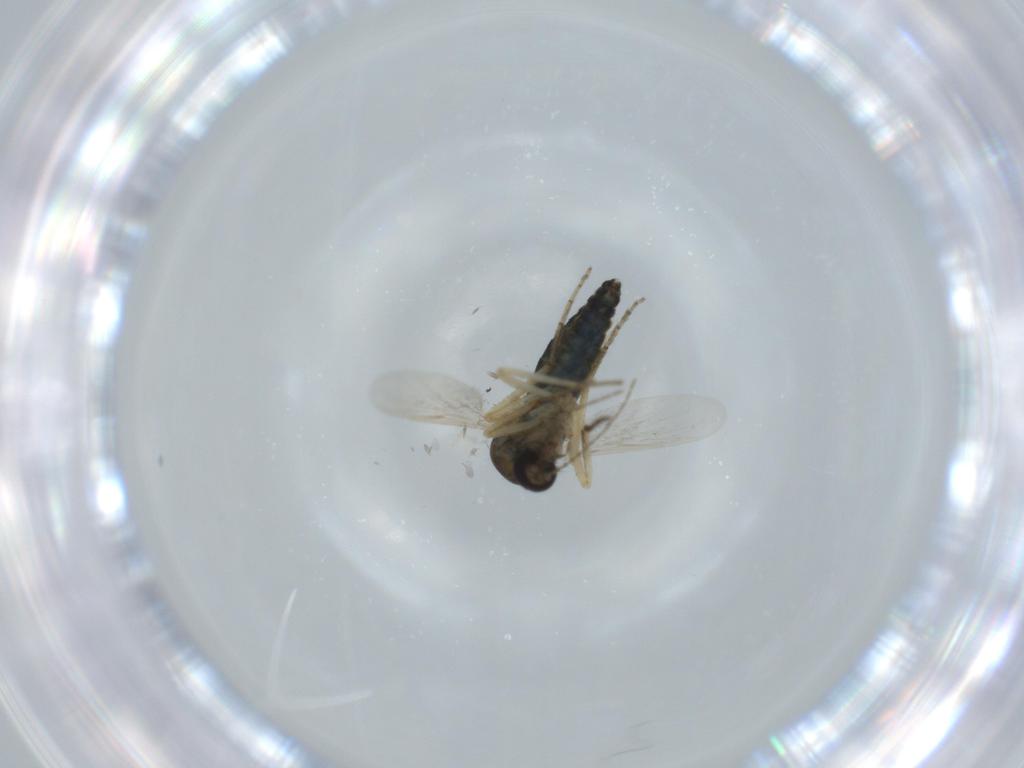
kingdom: Animalia
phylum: Arthropoda
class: Insecta
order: Diptera
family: Ceratopogonidae
